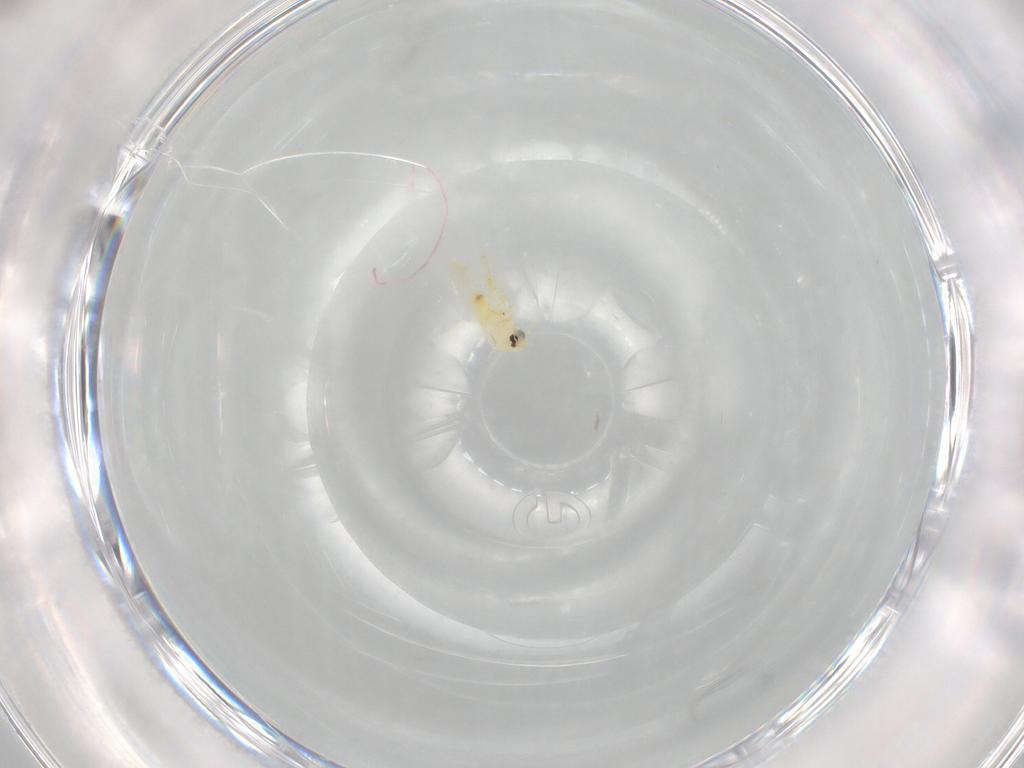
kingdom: Animalia
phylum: Arthropoda
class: Insecta
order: Hemiptera
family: Aleyrodidae
